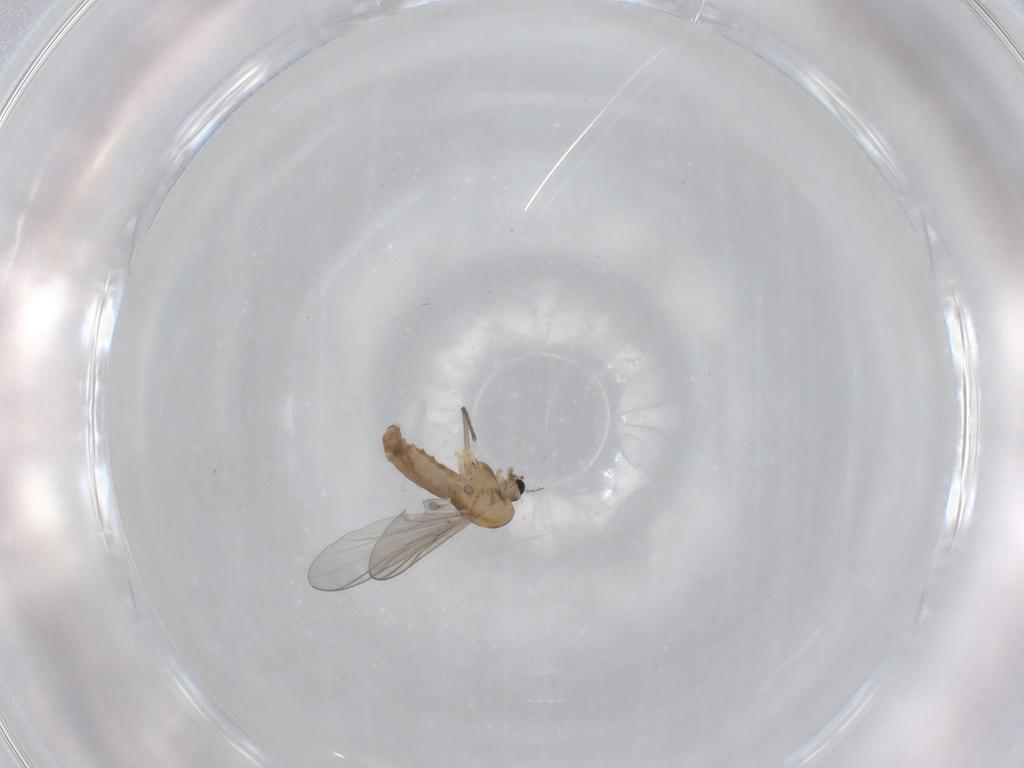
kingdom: Animalia
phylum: Arthropoda
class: Insecta
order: Diptera
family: Chironomidae
